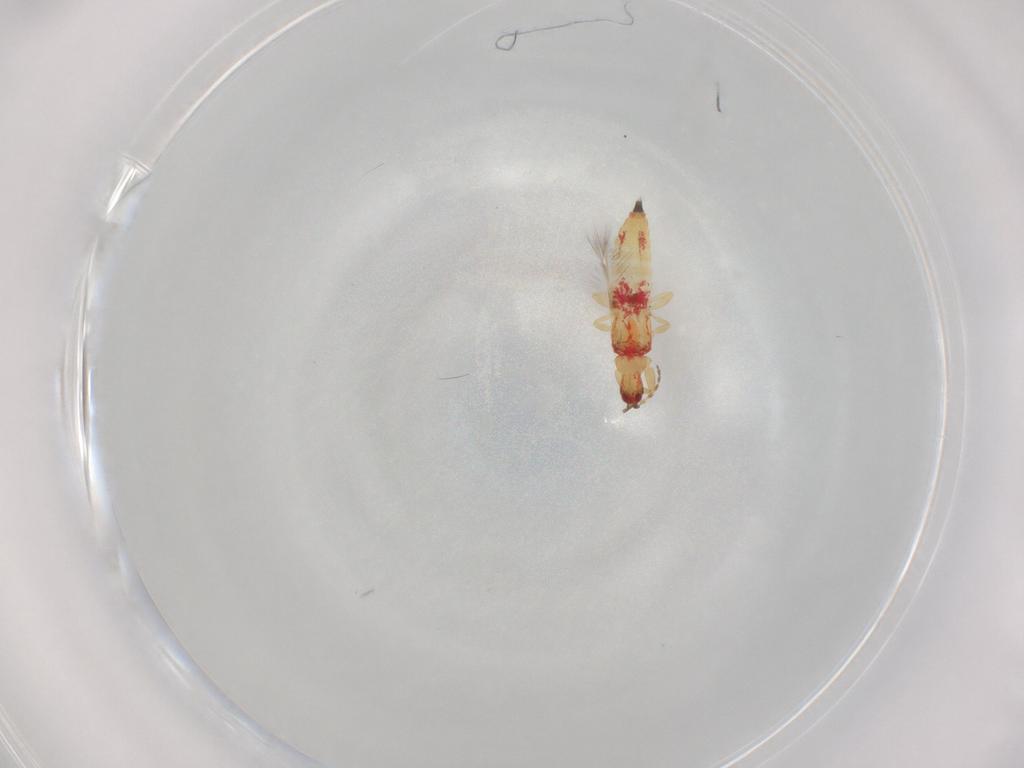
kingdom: Animalia
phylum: Arthropoda
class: Insecta
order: Thysanoptera
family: Phlaeothripidae
